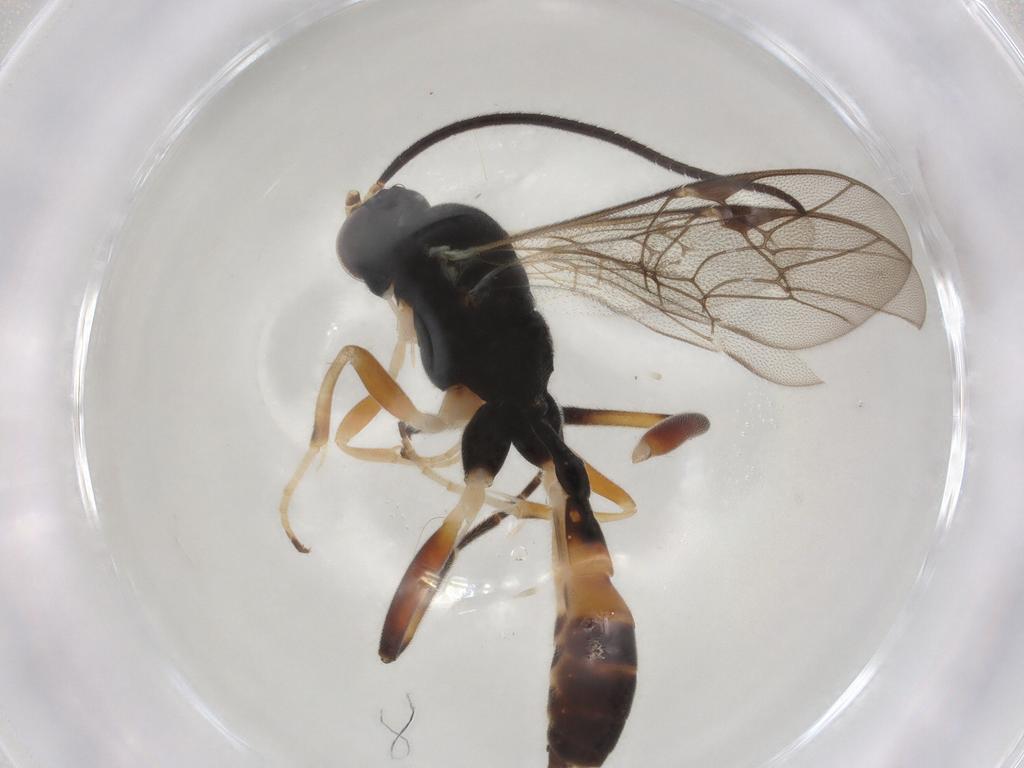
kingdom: Animalia
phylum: Arthropoda
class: Insecta
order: Hymenoptera
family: Ichneumonidae
